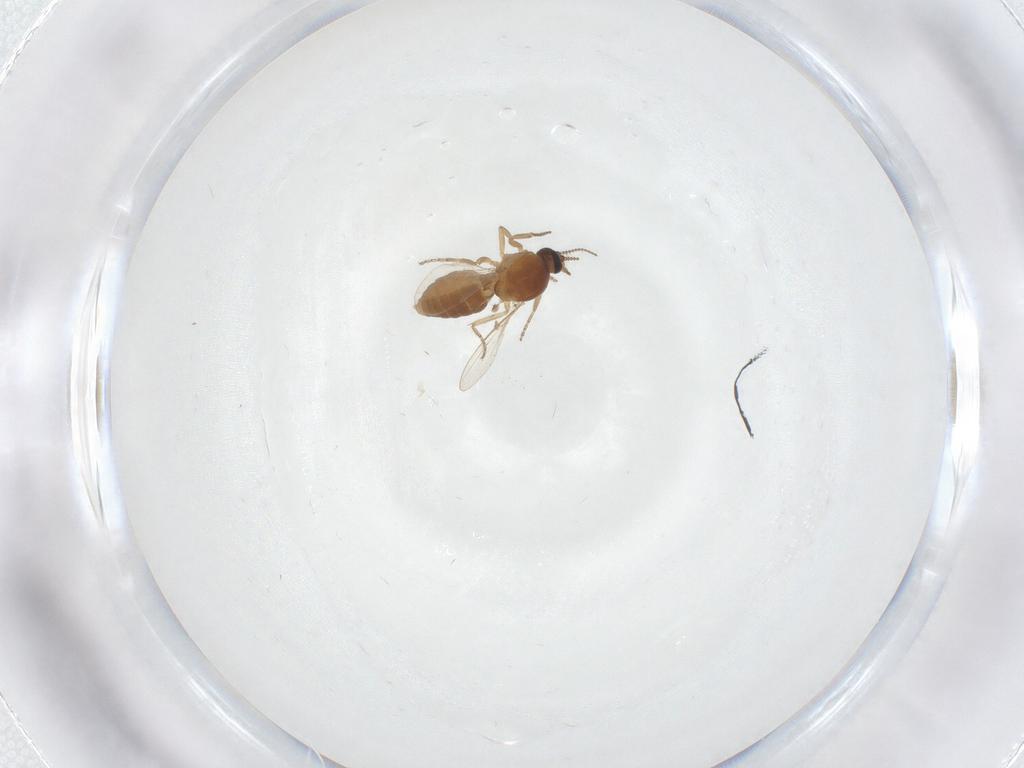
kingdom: Animalia
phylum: Arthropoda
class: Insecta
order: Diptera
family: Ceratopogonidae
